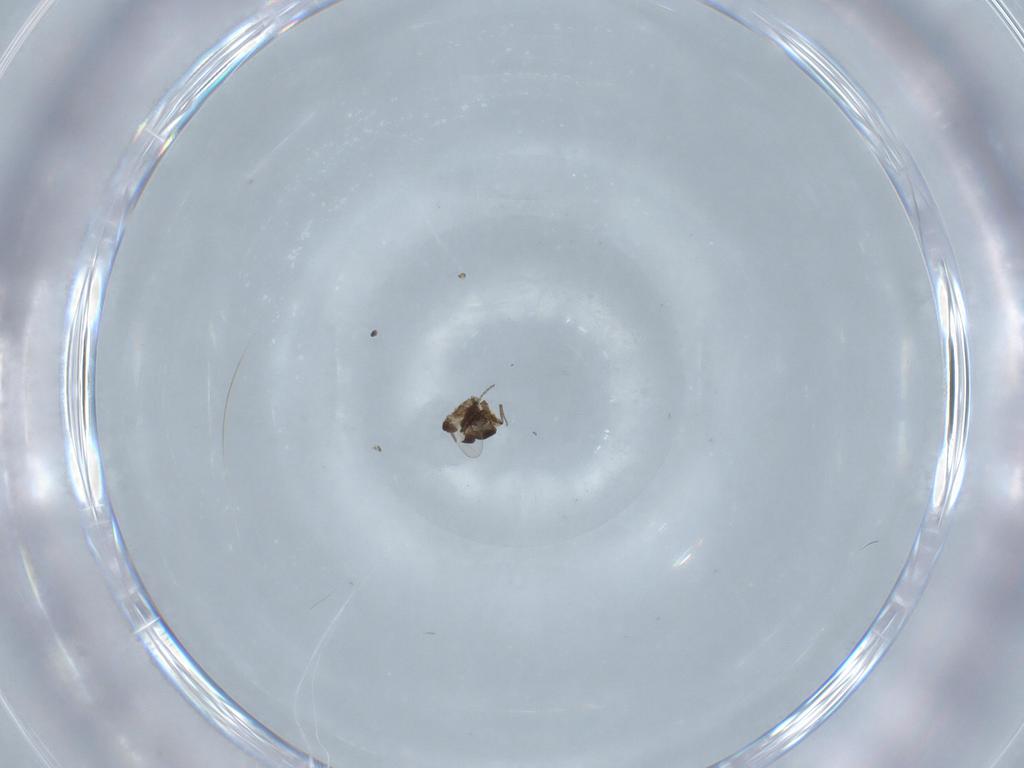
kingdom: Animalia
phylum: Arthropoda
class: Insecta
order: Diptera
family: Ceratopogonidae
